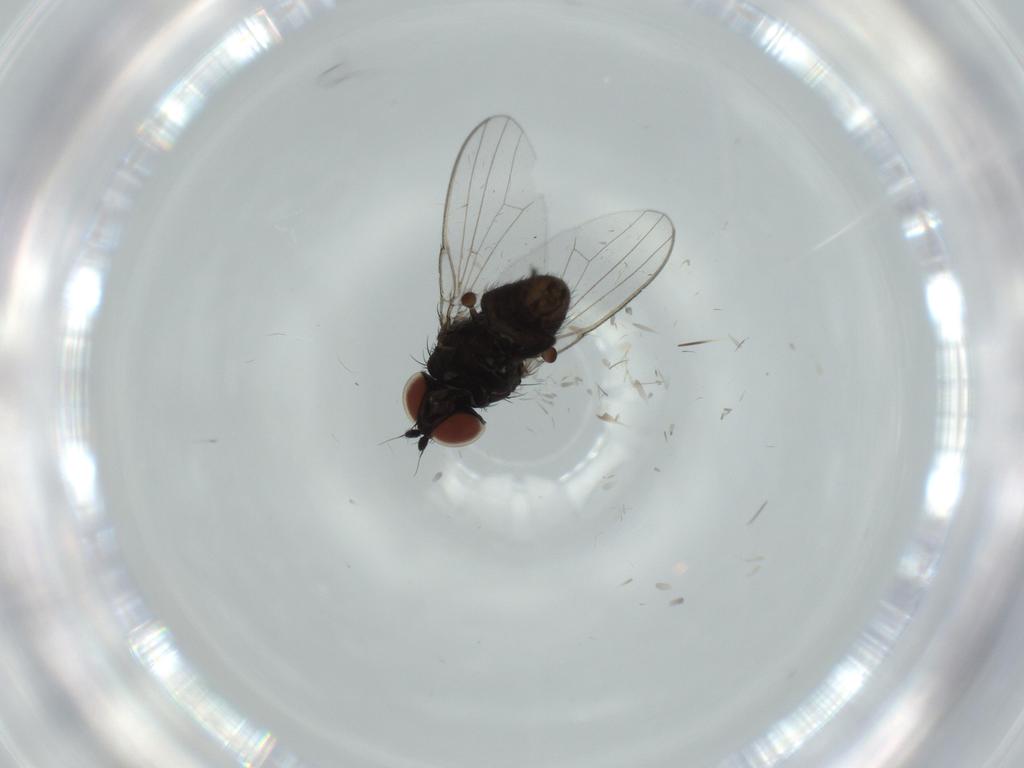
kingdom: Animalia
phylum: Arthropoda
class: Insecta
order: Diptera
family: Milichiidae
